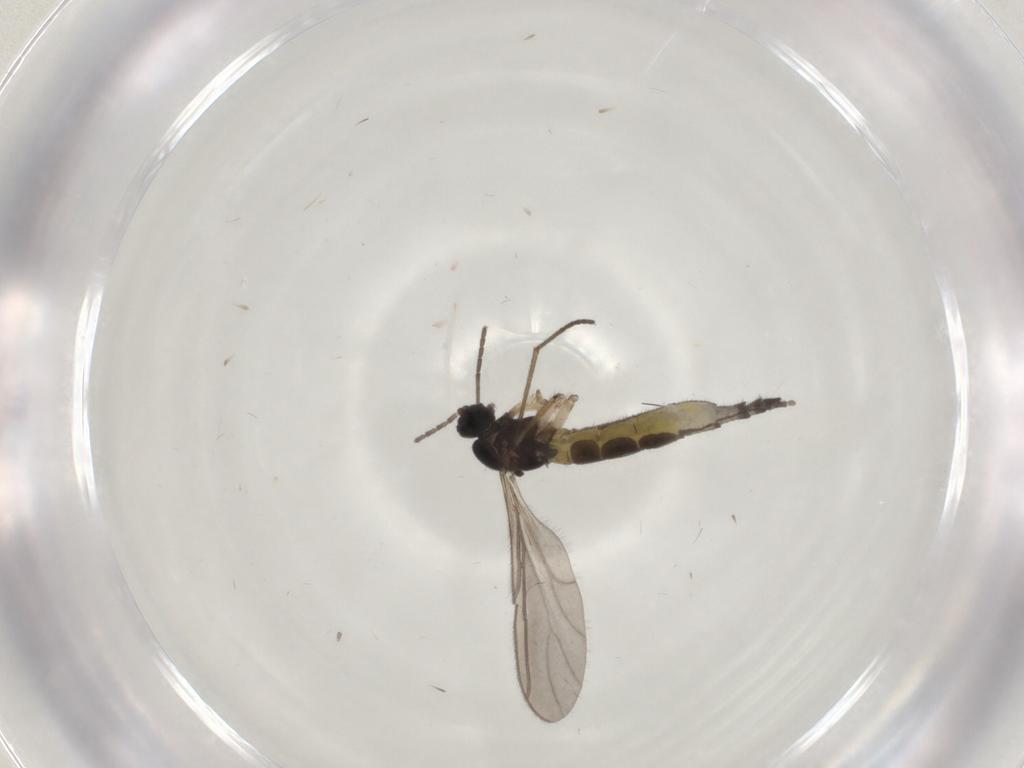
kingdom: Animalia
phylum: Arthropoda
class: Insecta
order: Diptera
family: Sciaridae
